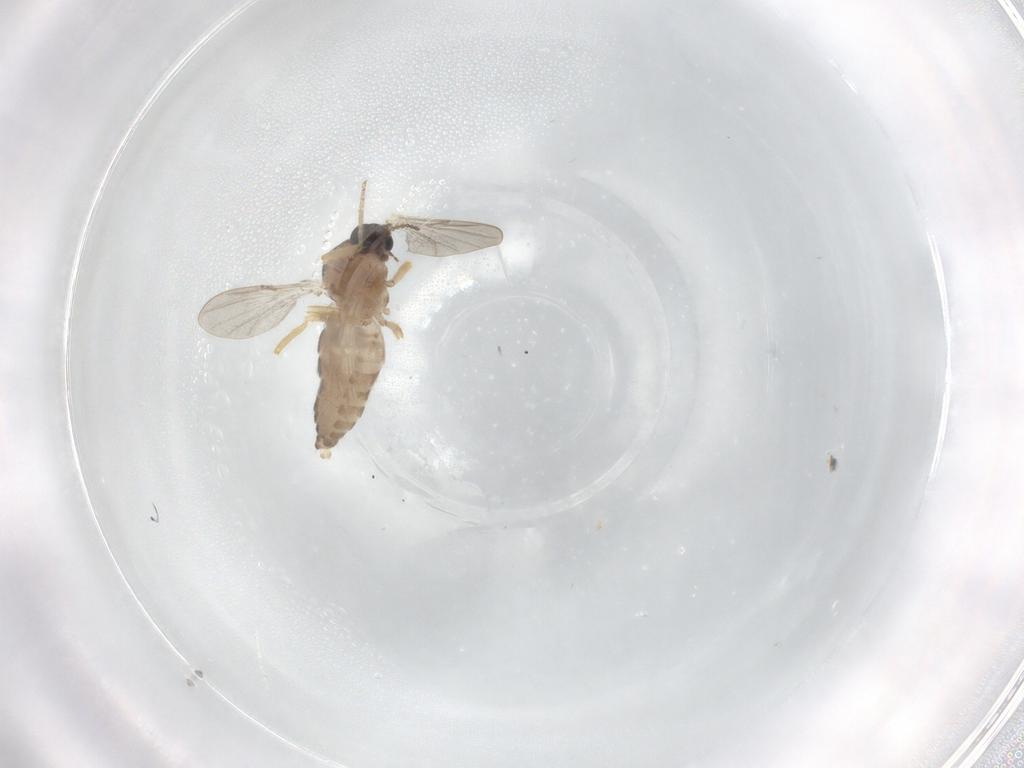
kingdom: Animalia
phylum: Arthropoda
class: Insecta
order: Diptera
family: Chironomidae
